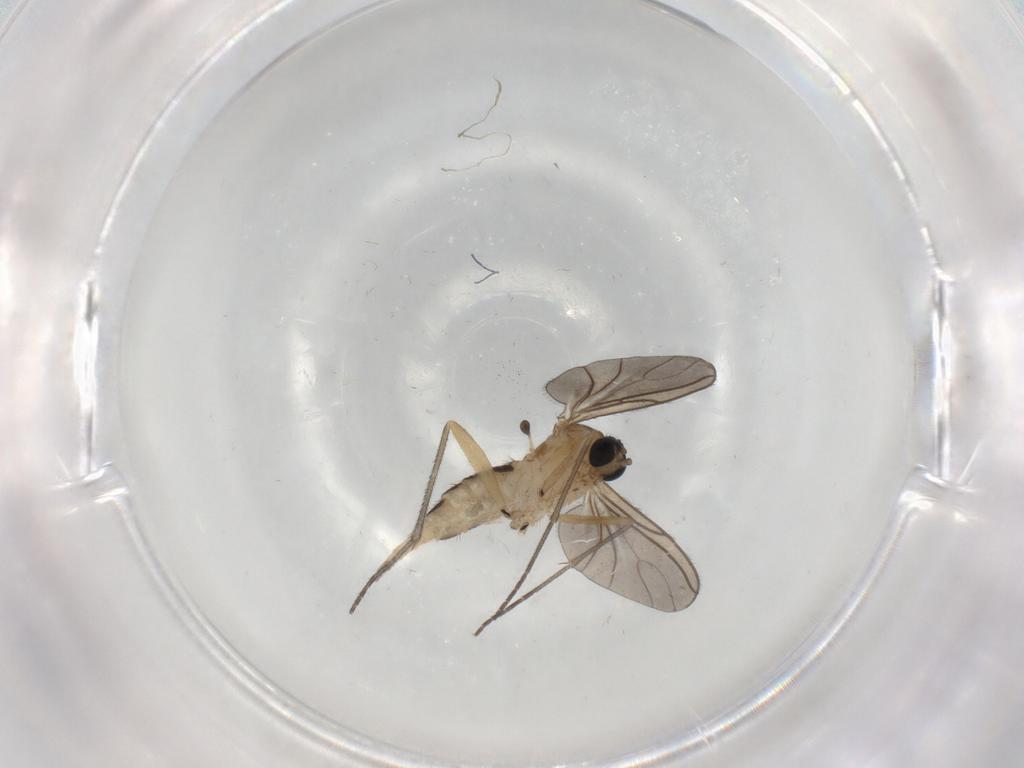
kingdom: Animalia
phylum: Arthropoda
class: Insecta
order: Diptera
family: Sciaridae
